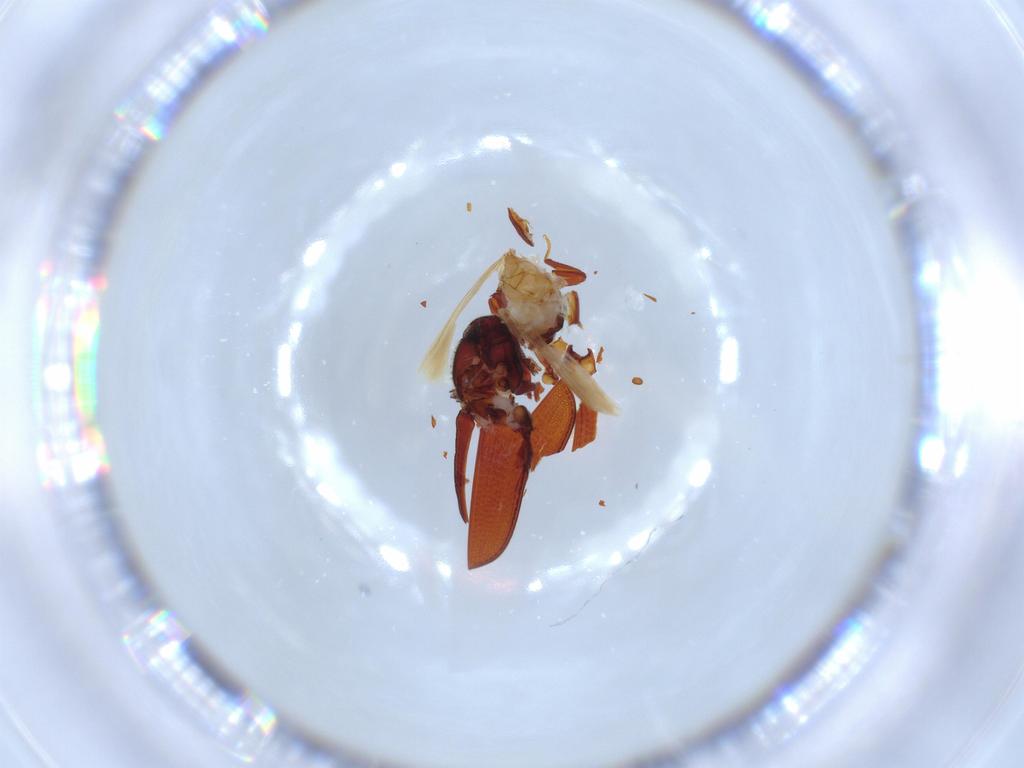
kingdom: Animalia
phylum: Arthropoda
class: Insecta
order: Coleoptera
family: Throscidae
